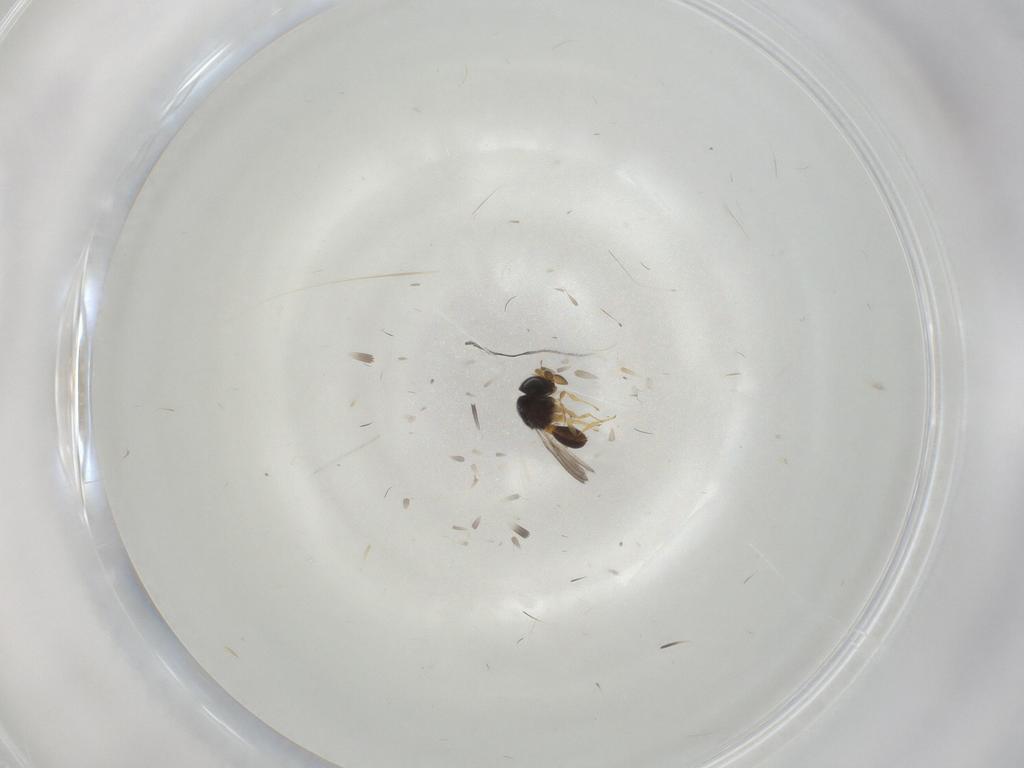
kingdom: Animalia
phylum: Arthropoda
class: Insecta
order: Hymenoptera
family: Scelionidae
